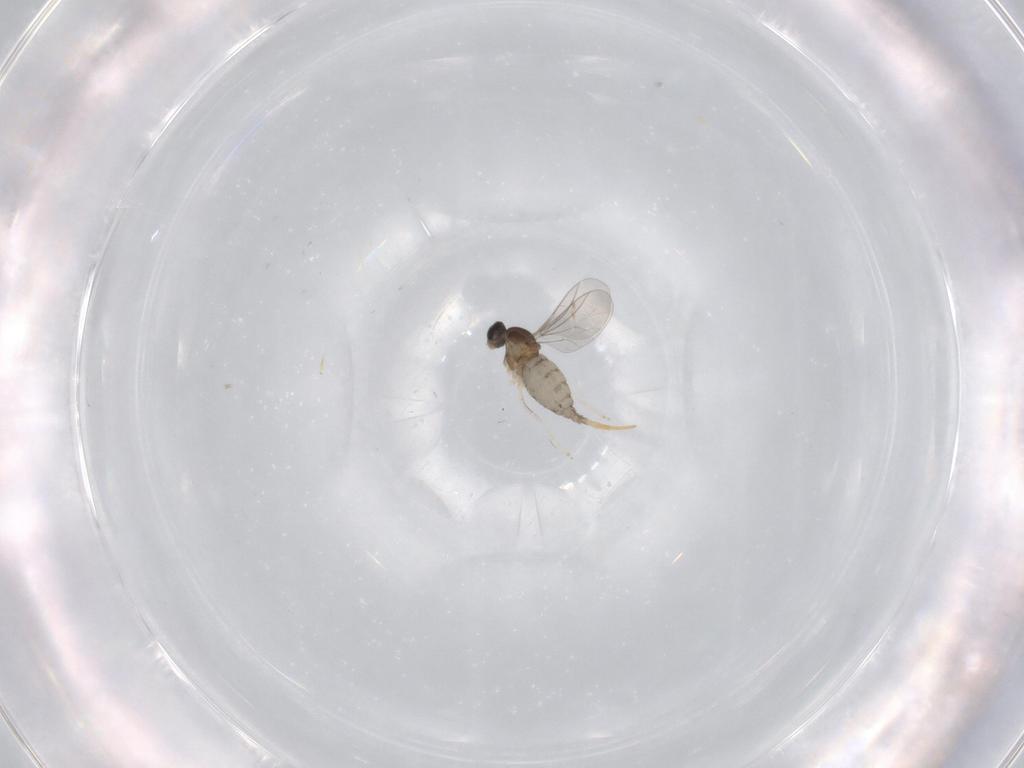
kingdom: Animalia
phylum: Arthropoda
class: Insecta
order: Diptera
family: Cecidomyiidae
